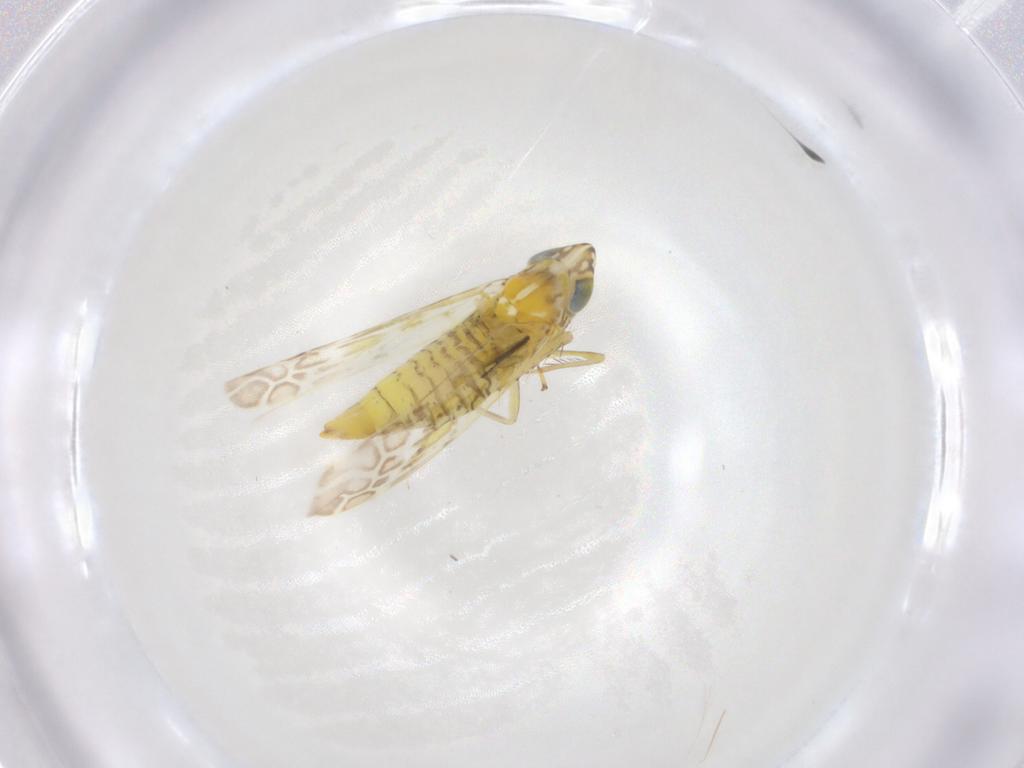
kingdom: Animalia
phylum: Arthropoda
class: Insecta
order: Hemiptera
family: Cicadellidae
